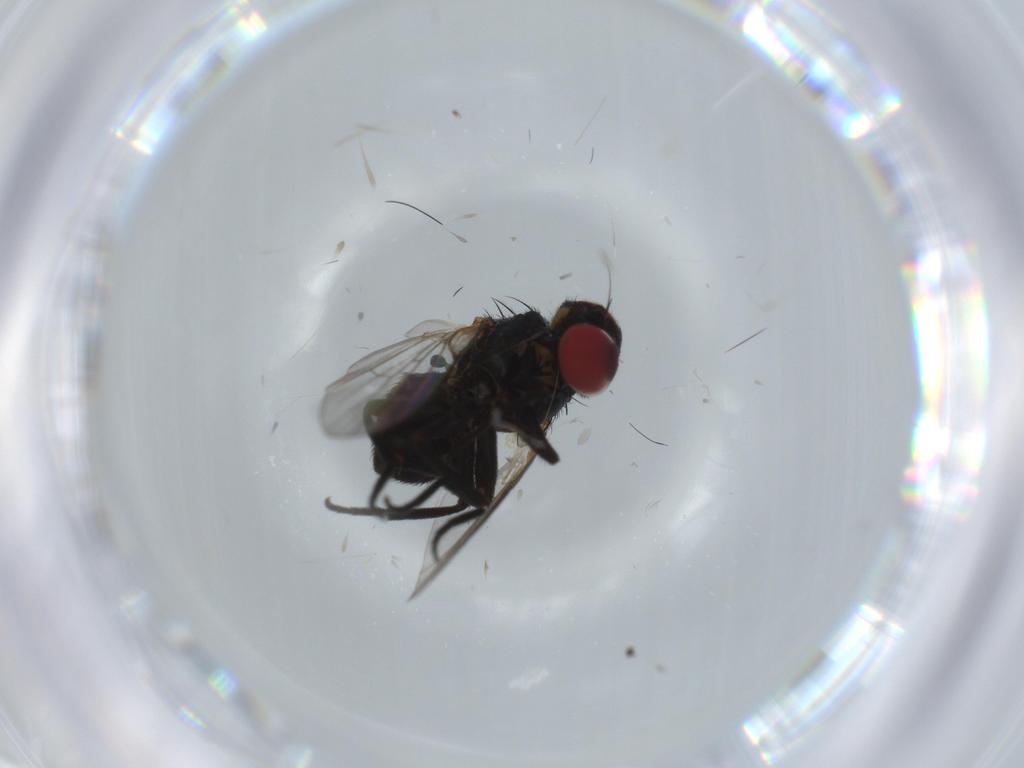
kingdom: Animalia
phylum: Arthropoda
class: Insecta
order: Diptera
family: Agromyzidae
